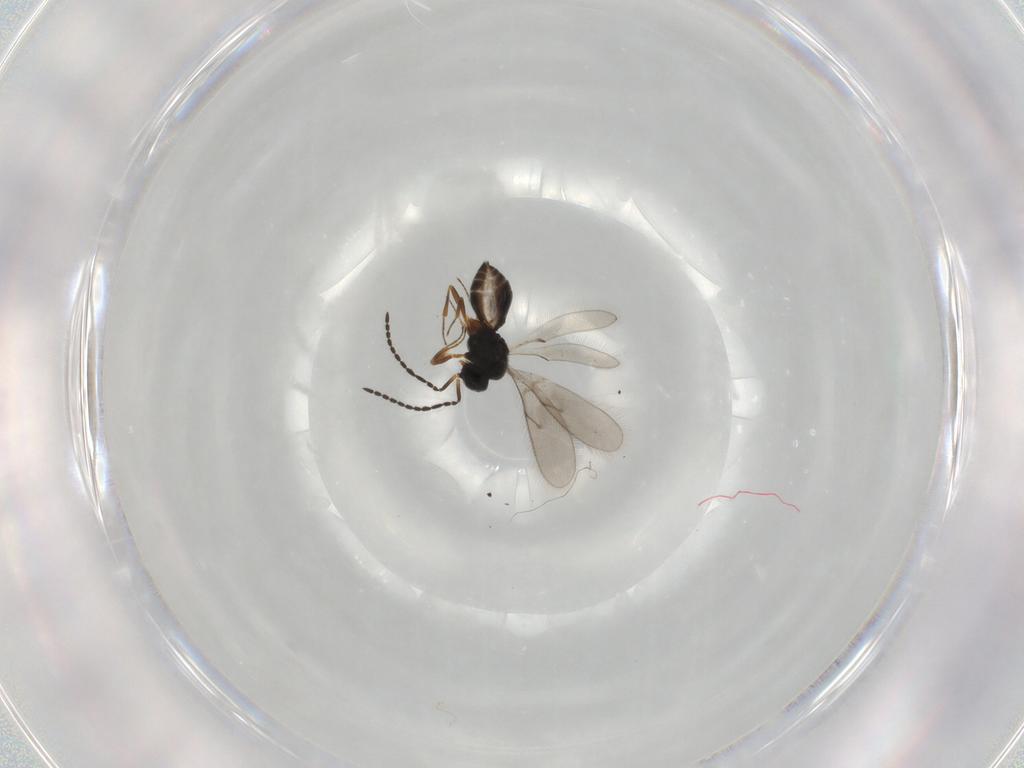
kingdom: Animalia
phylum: Arthropoda
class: Insecta
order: Hymenoptera
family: Scelionidae
